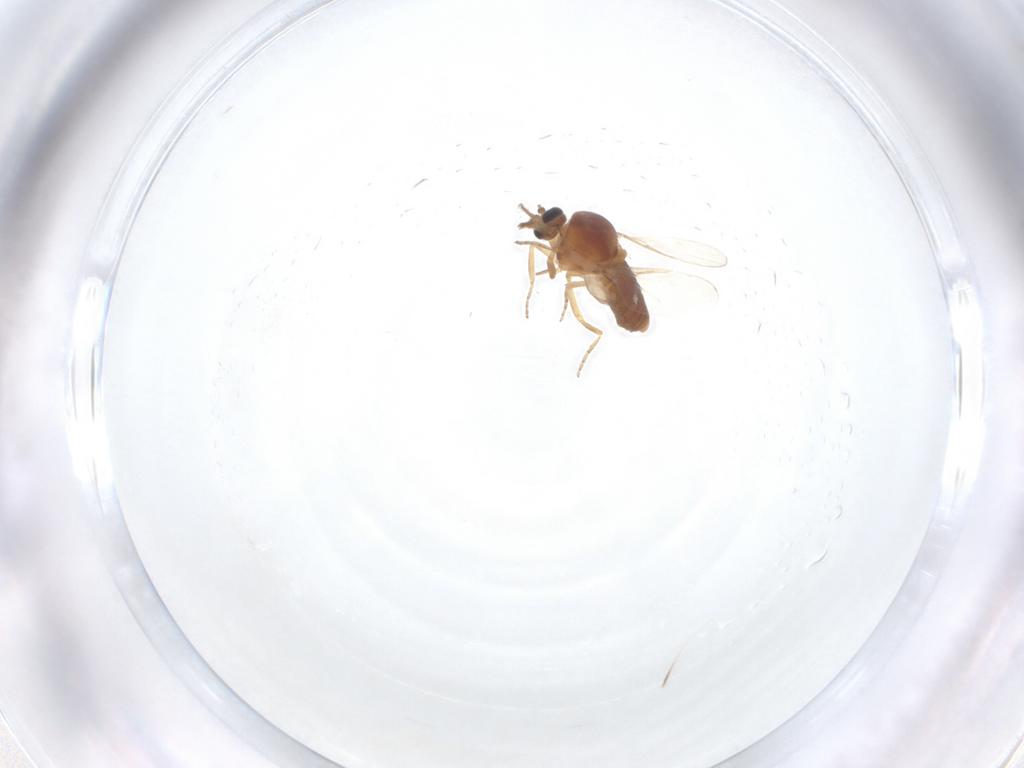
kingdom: Animalia
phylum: Arthropoda
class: Insecta
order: Diptera
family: Ceratopogonidae
